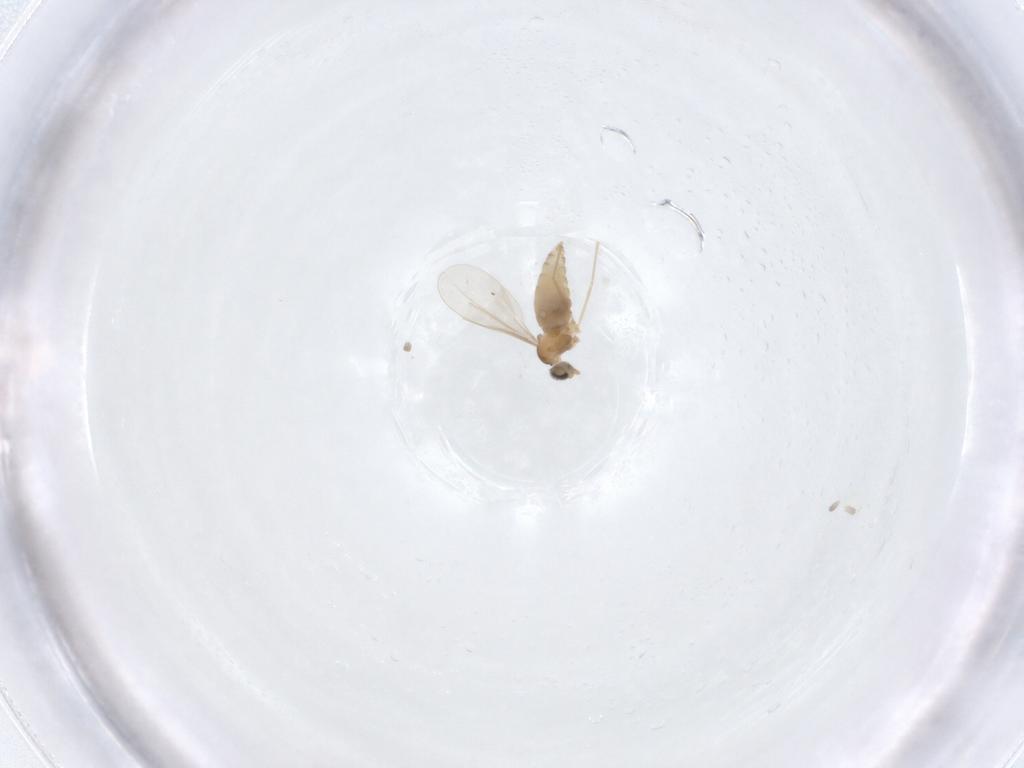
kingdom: Animalia
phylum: Arthropoda
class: Insecta
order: Diptera
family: Cecidomyiidae
